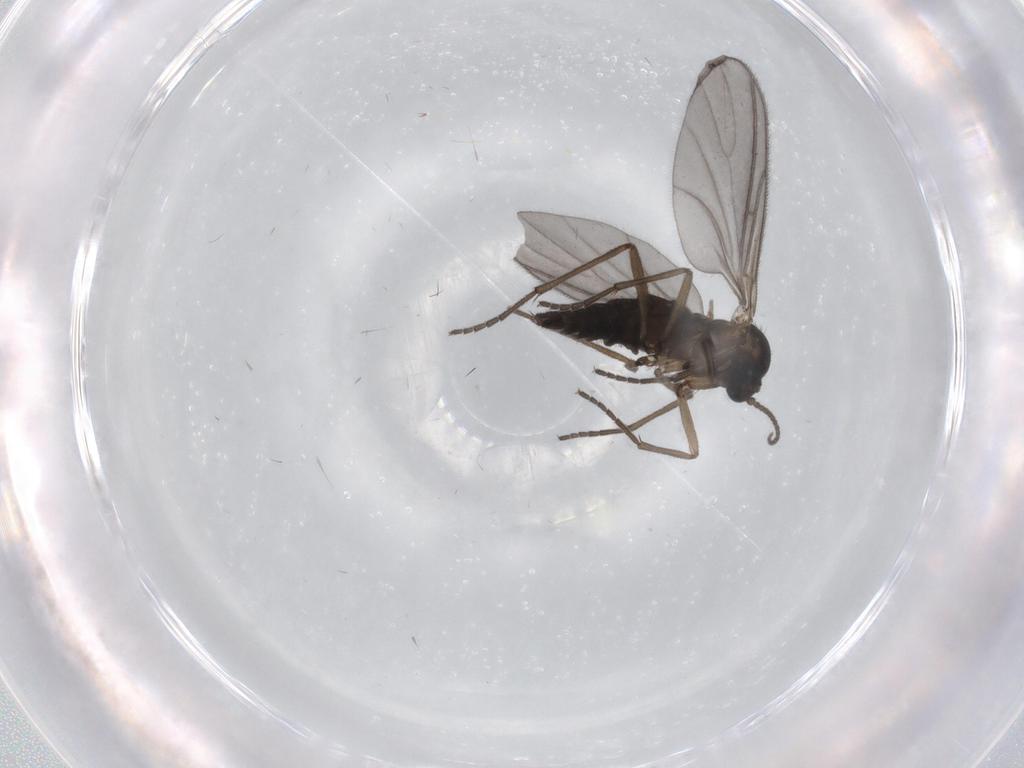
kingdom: Animalia
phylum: Arthropoda
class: Insecta
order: Diptera
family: Sciaridae
